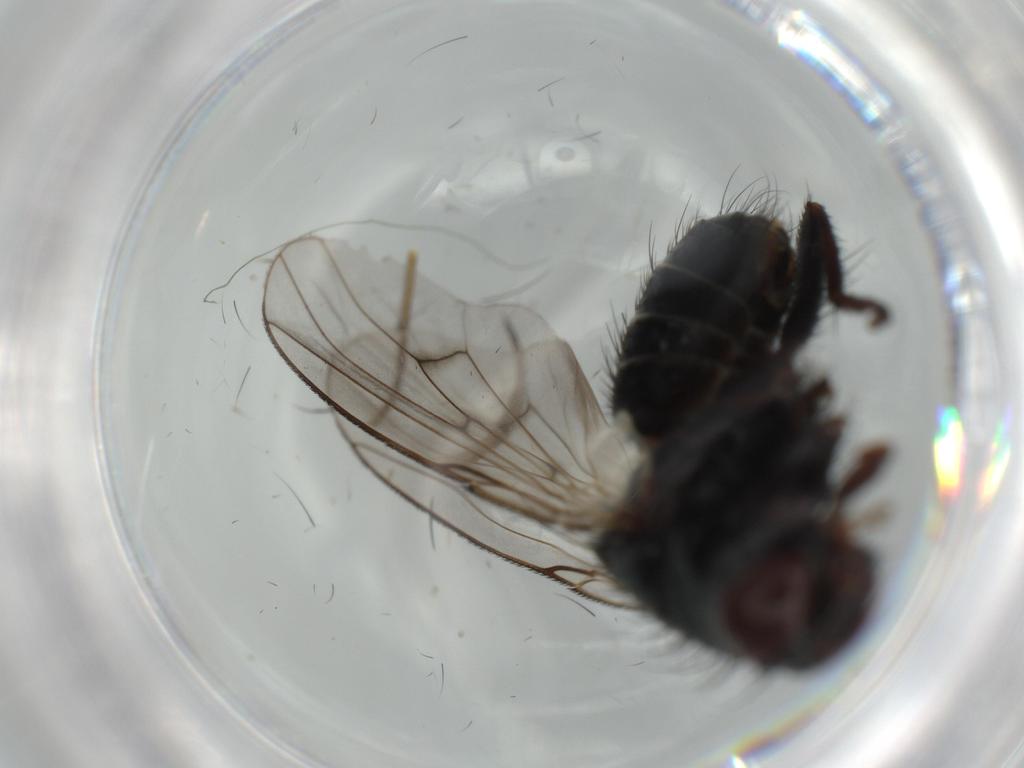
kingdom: Animalia
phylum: Arthropoda
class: Insecta
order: Diptera
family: Muscidae
